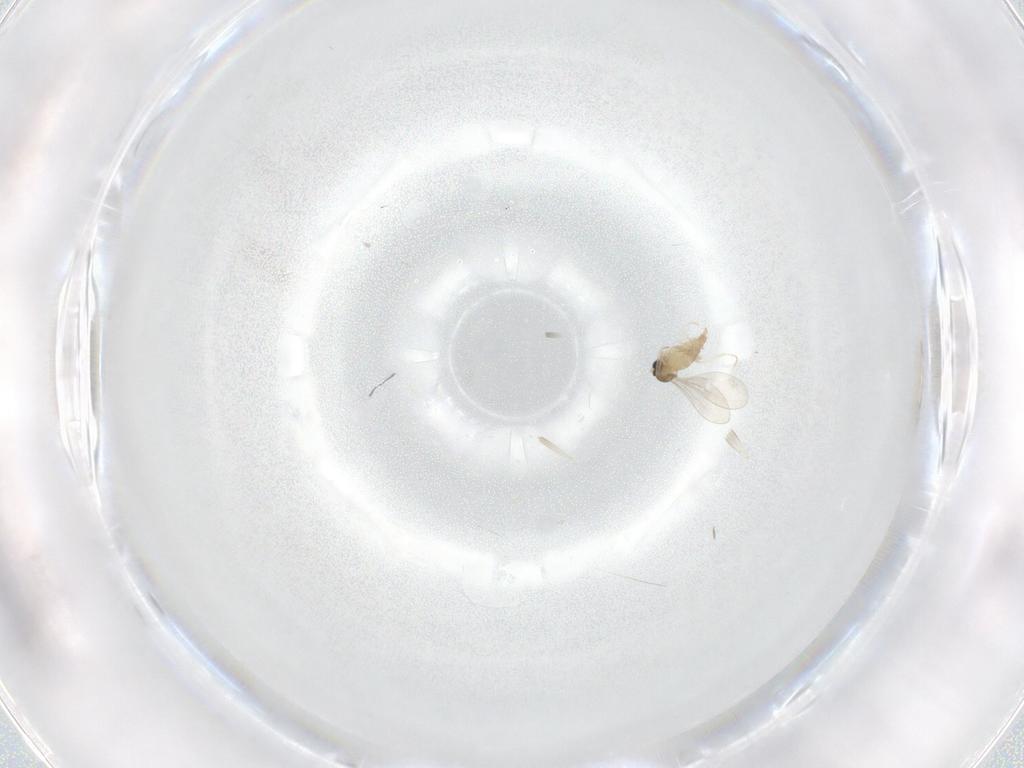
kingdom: Animalia
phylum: Arthropoda
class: Insecta
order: Diptera
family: Cecidomyiidae
